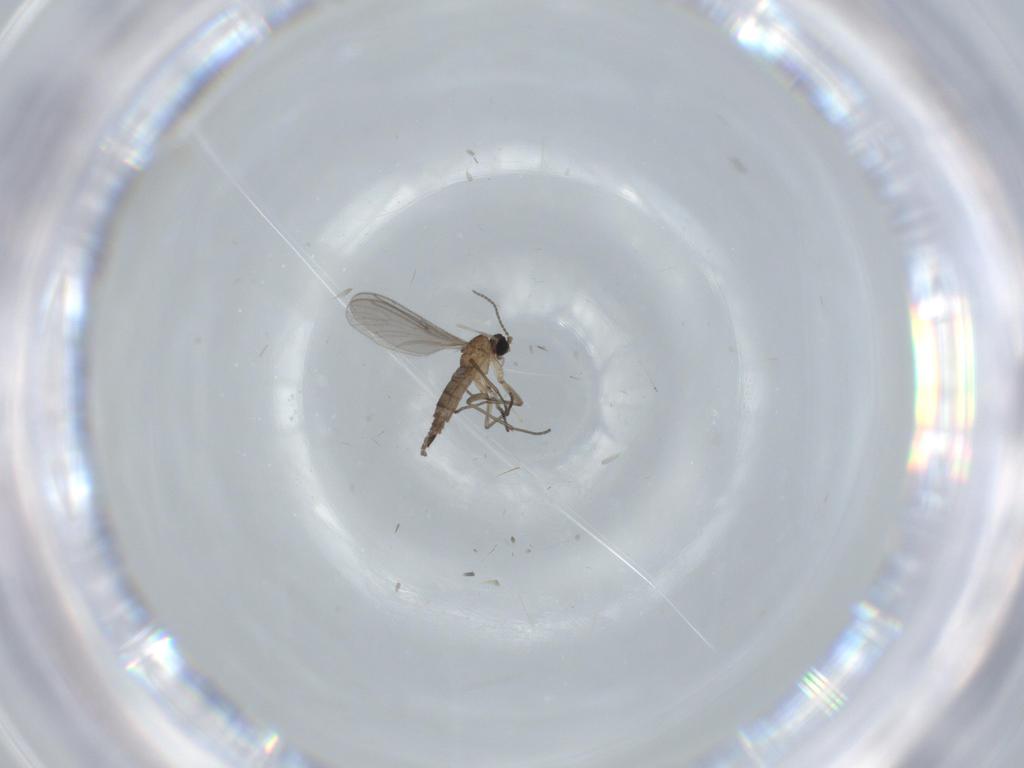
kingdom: Animalia
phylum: Arthropoda
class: Insecta
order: Diptera
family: Sciaridae
